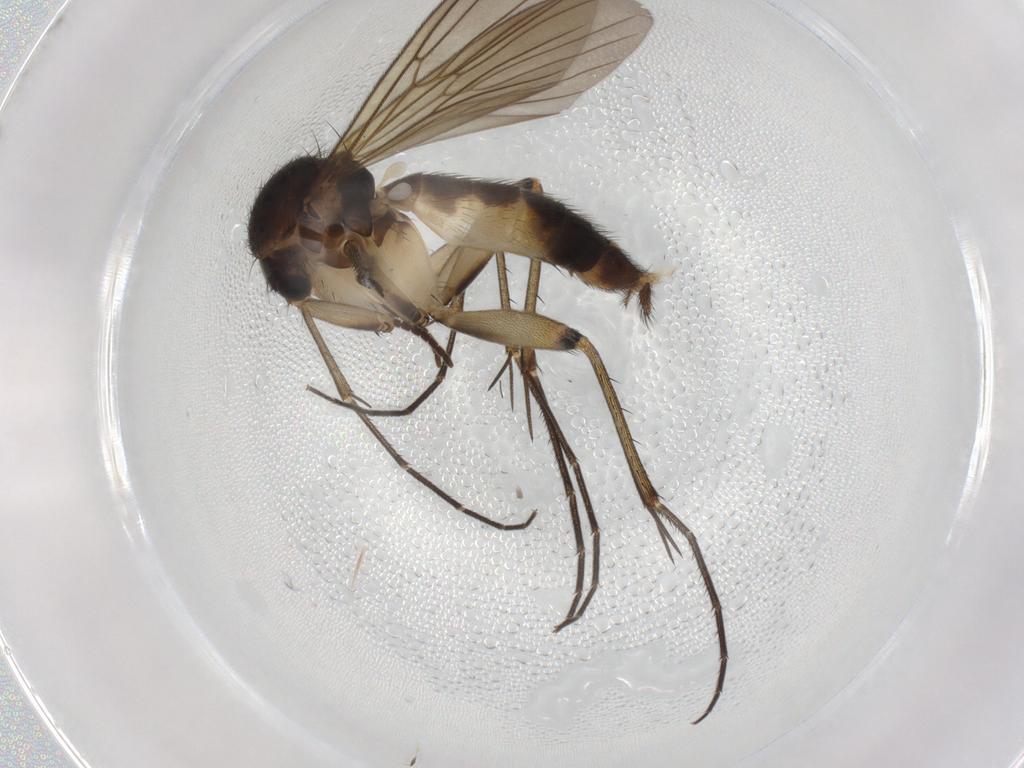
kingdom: Animalia
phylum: Arthropoda
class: Insecta
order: Diptera
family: Mycetophilidae
